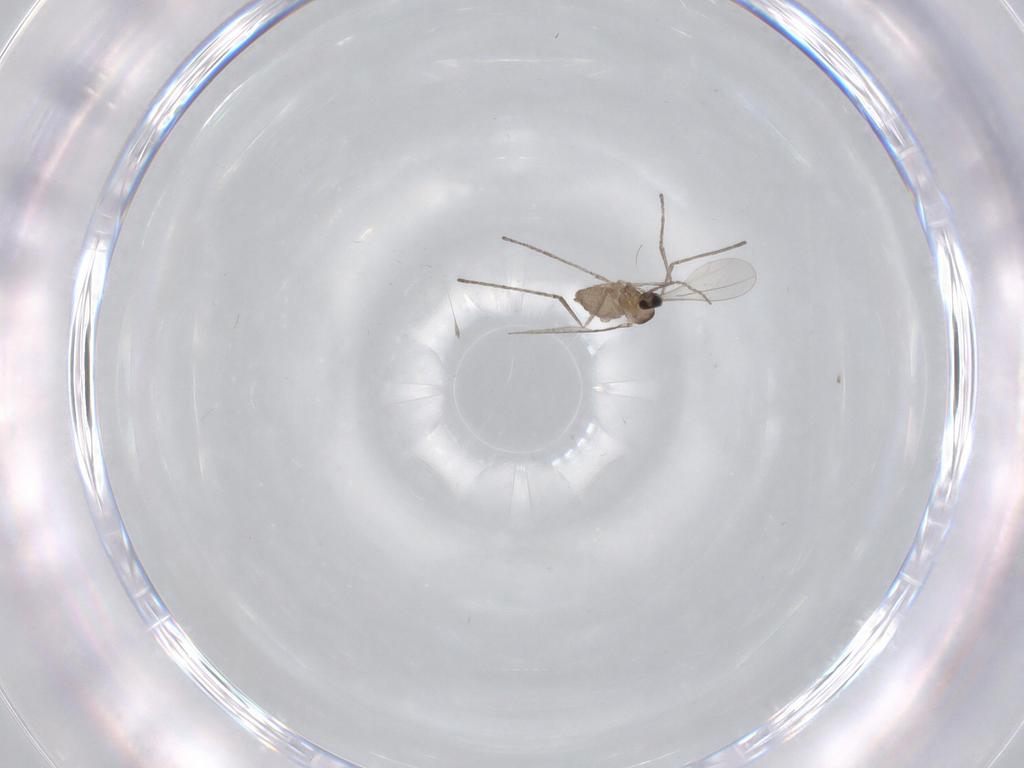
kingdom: Animalia
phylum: Arthropoda
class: Insecta
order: Diptera
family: Cecidomyiidae
